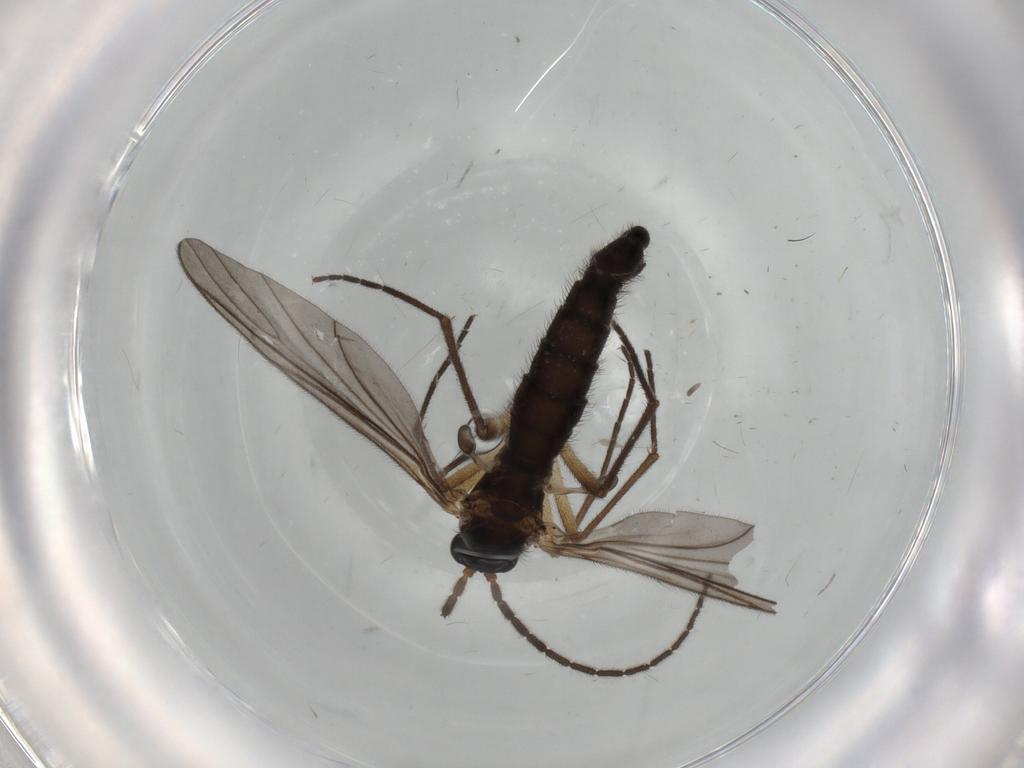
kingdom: Animalia
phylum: Arthropoda
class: Insecta
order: Diptera
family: Sciaridae
